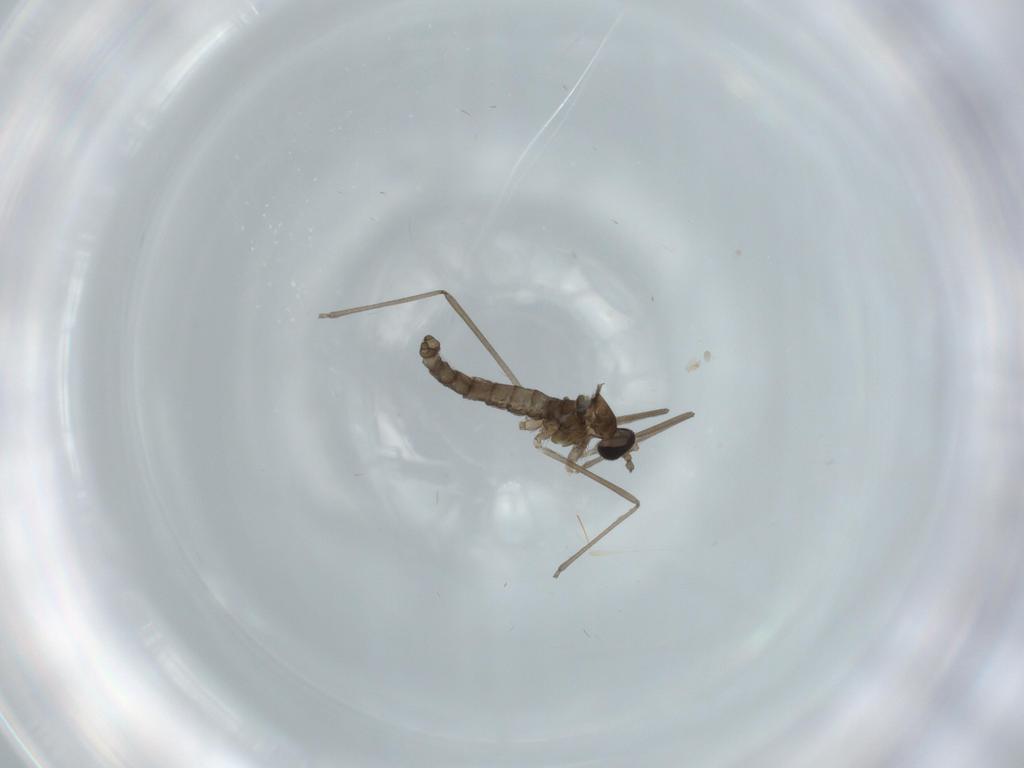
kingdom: Animalia
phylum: Arthropoda
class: Insecta
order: Diptera
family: Cecidomyiidae
